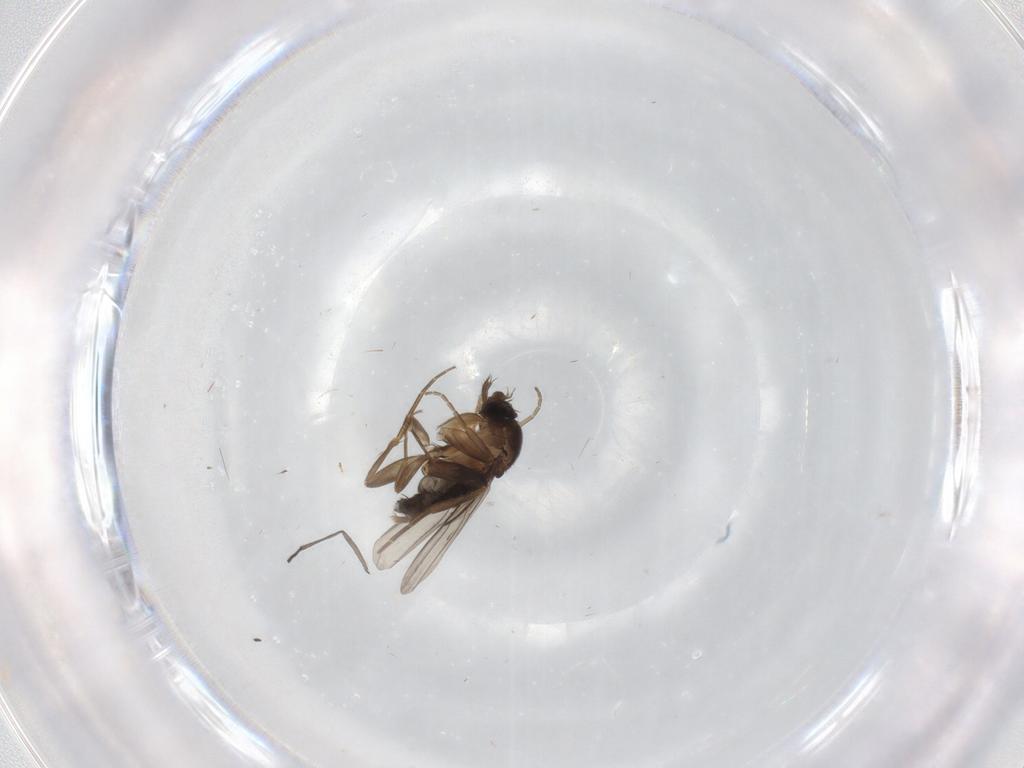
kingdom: Animalia
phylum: Arthropoda
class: Insecta
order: Diptera
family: Phoridae
